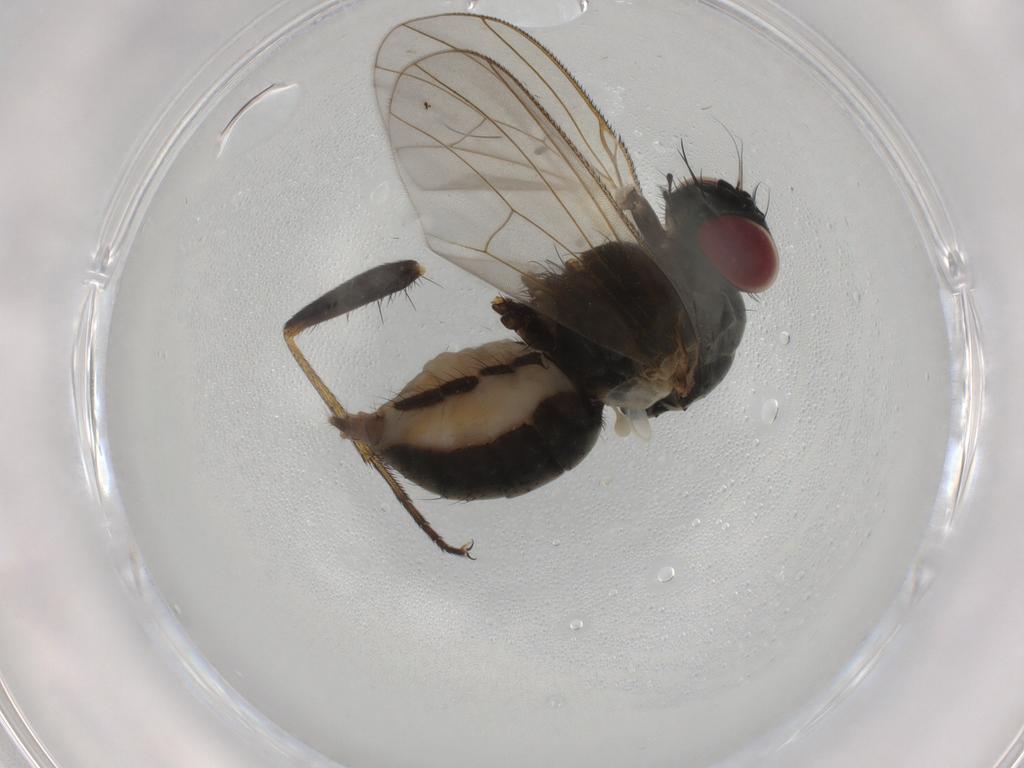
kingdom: Animalia
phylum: Arthropoda
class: Insecta
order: Diptera
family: Muscidae
